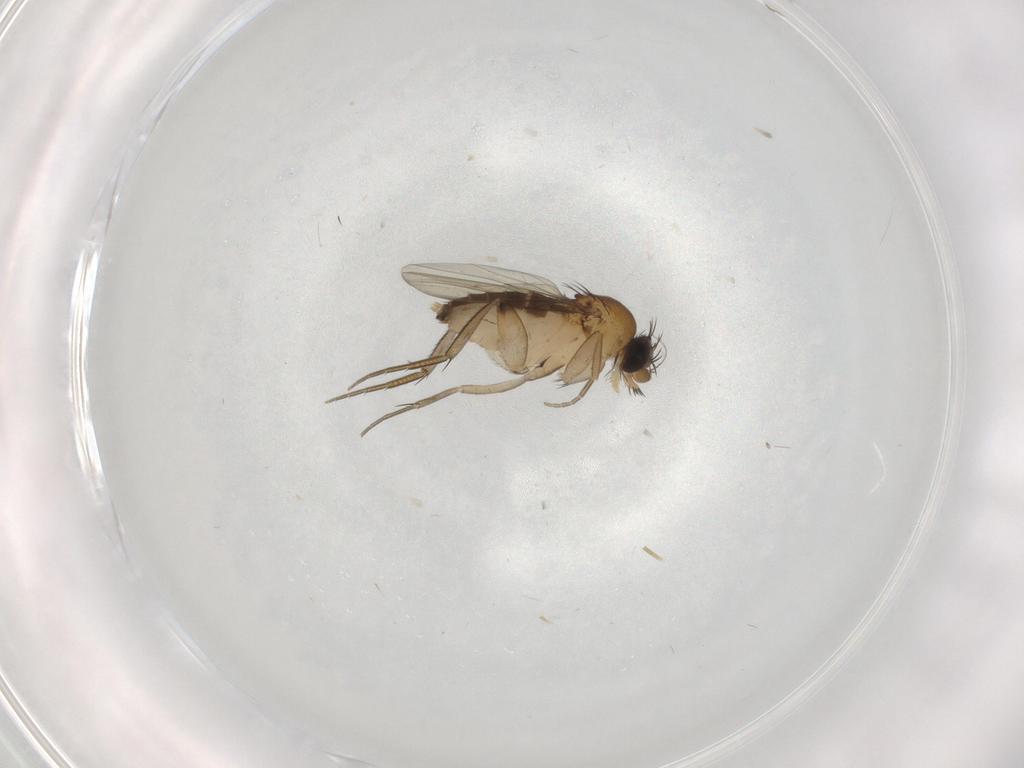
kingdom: Animalia
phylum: Arthropoda
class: Insecta
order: Diptera
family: Phoridae
